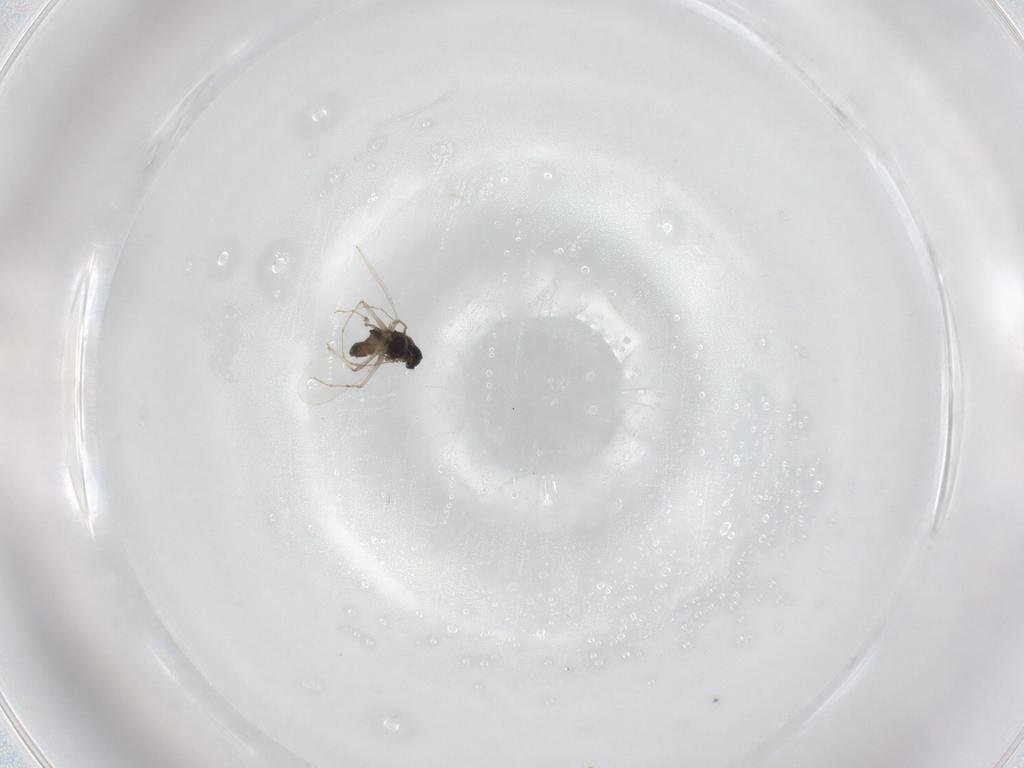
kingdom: Animalia
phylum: Arthropoda
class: Insecta
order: Diptera
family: Chironomidae
